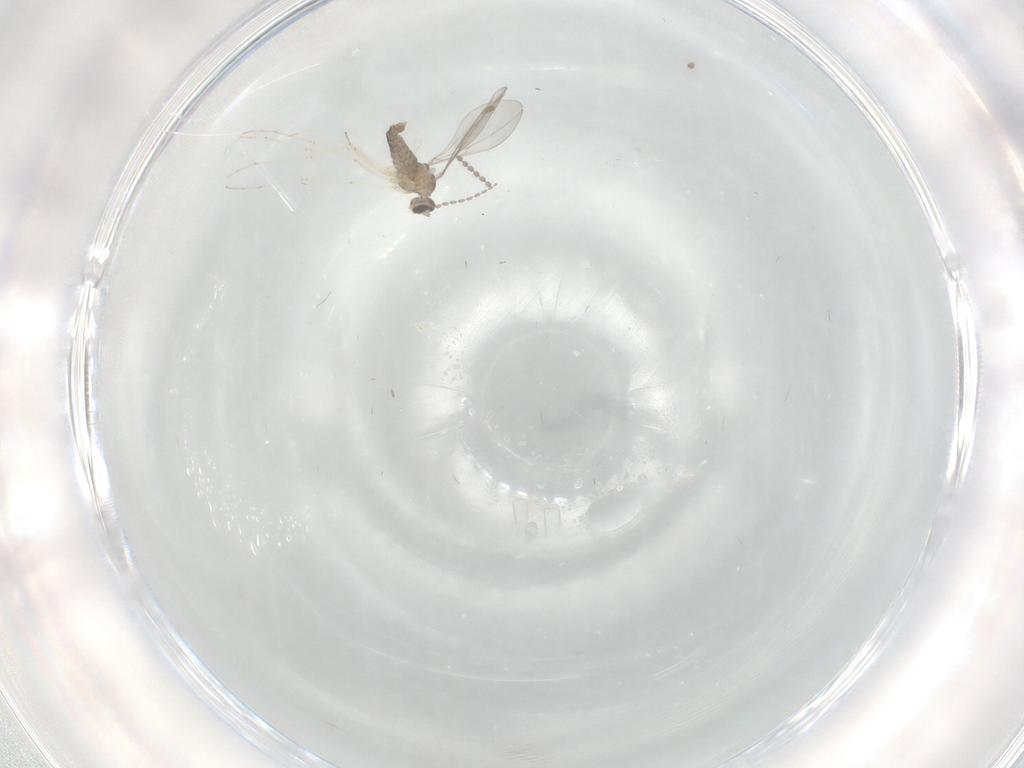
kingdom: Animalia
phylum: Arthropoda
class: Insecta
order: Diptera
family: Cecidomyiidae
